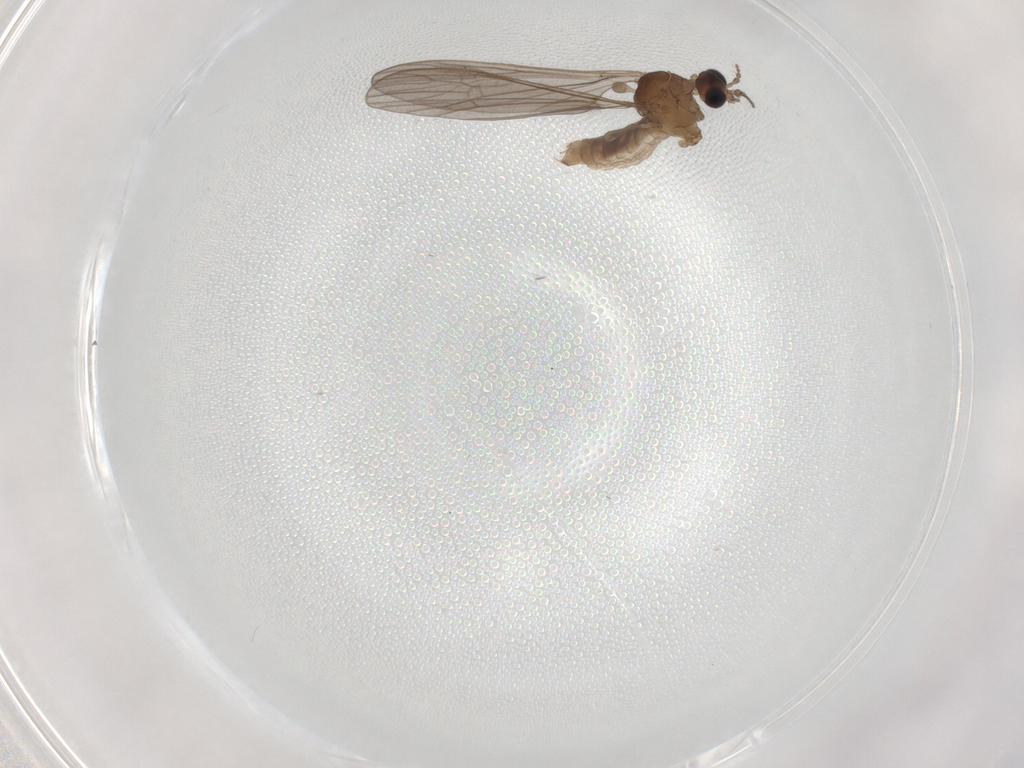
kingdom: Animalia
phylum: Arthropoda
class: Insecta
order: Diptera
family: Limoniidae
